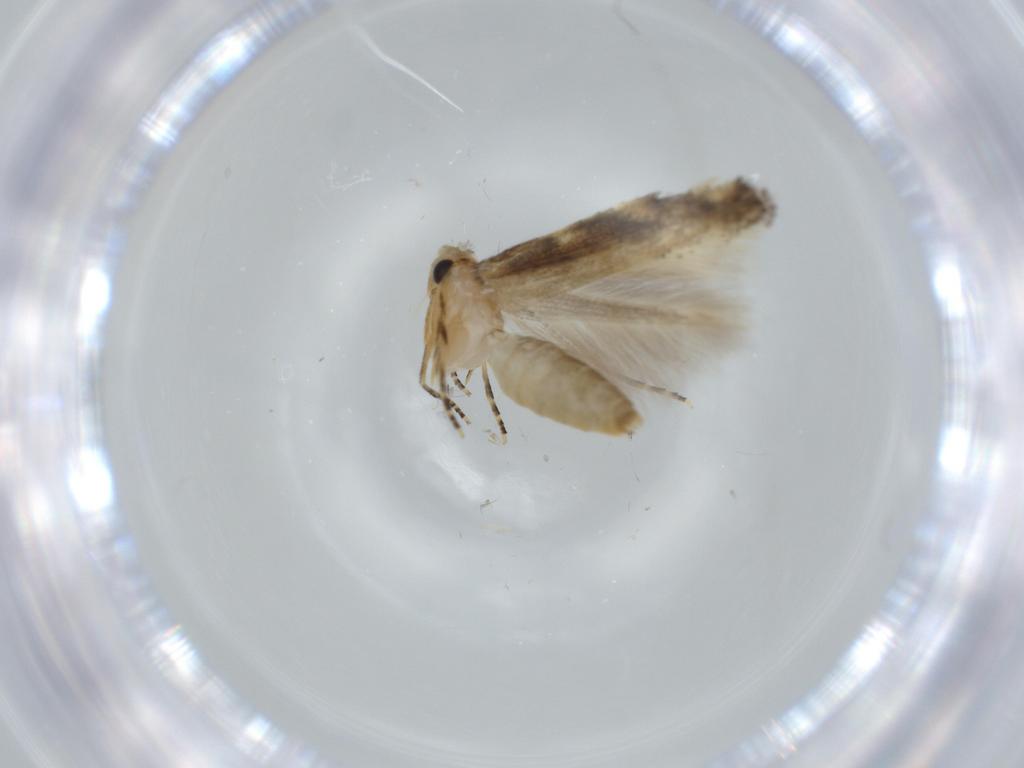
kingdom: Animalia
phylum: Arthropoda
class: Insecta
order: Lepidoptera
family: Bucculatricidae
